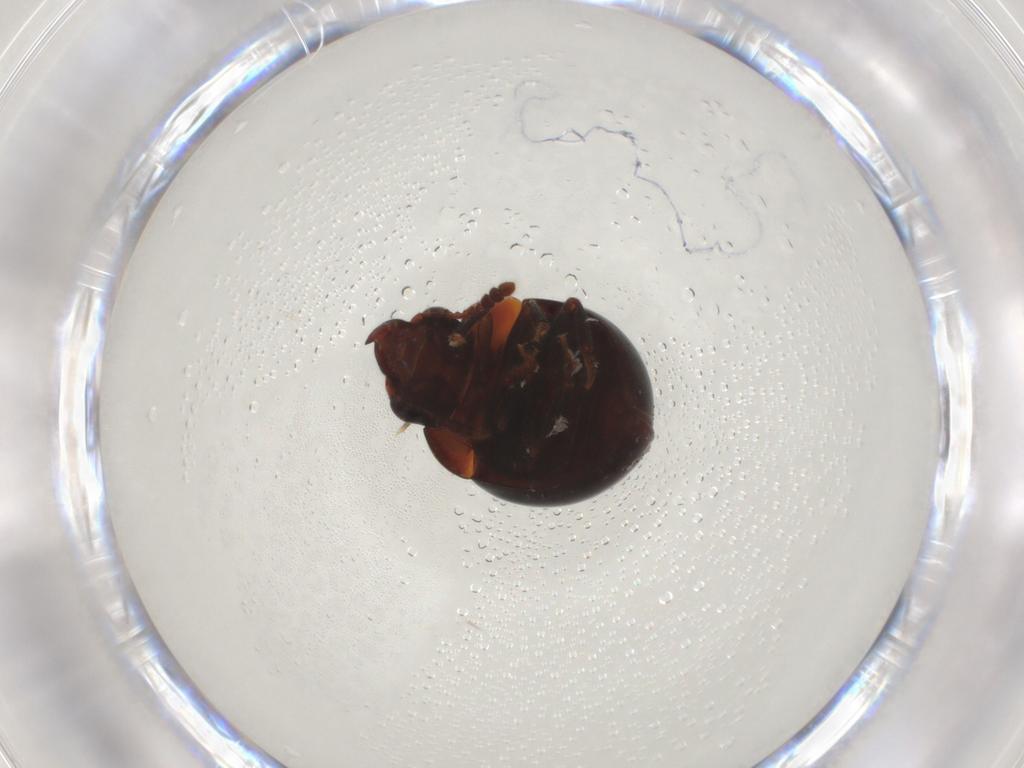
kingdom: Animalia
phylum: Arthropoda
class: Insecta
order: Coleoptera
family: Leiodidae
